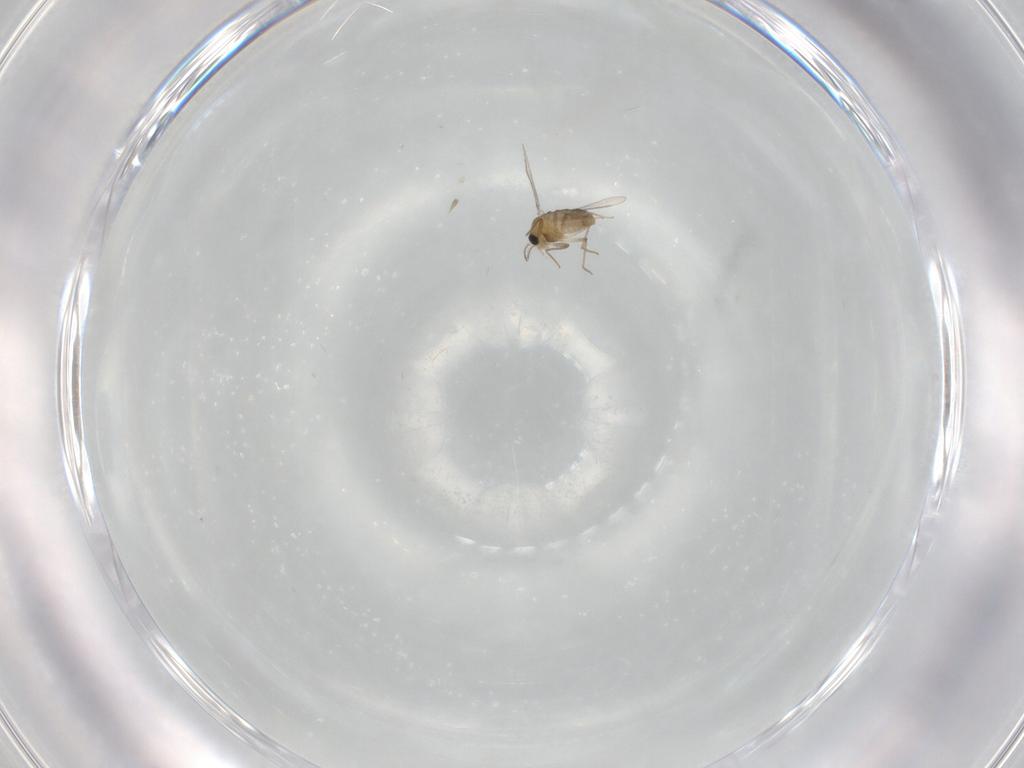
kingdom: Animalia
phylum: Arthropoda
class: Insecta
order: Diptera
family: Chironomidae
